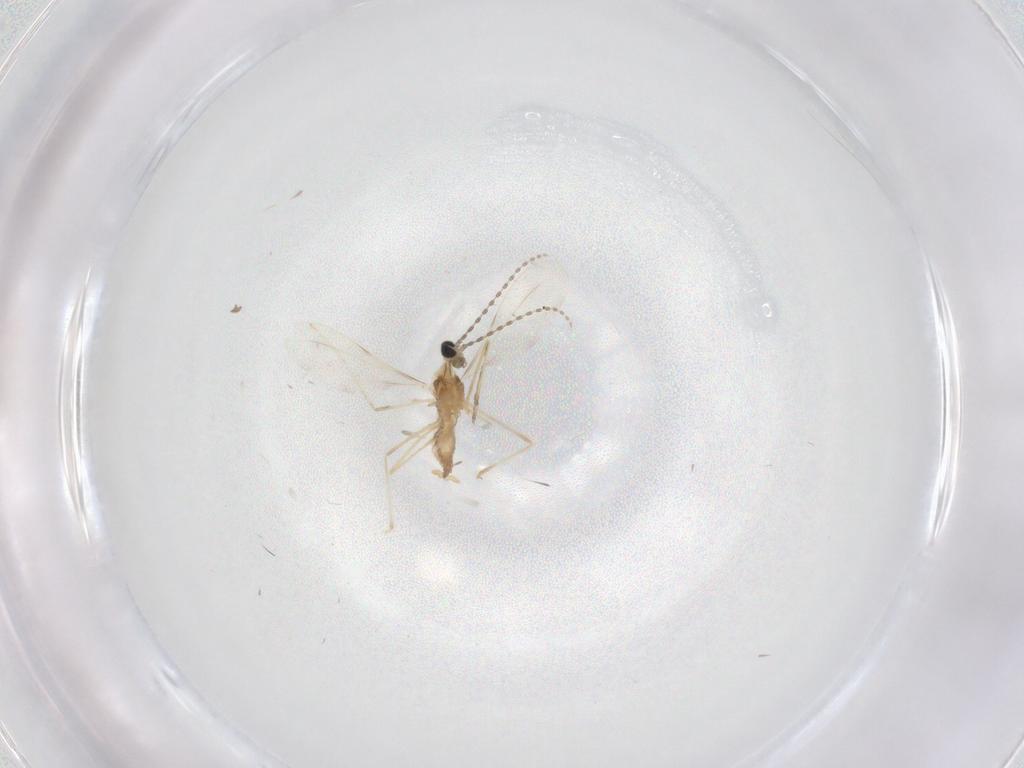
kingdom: Animalia
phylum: Arthropoda
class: Insecta
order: Diptera
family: Cecidomyiidae
